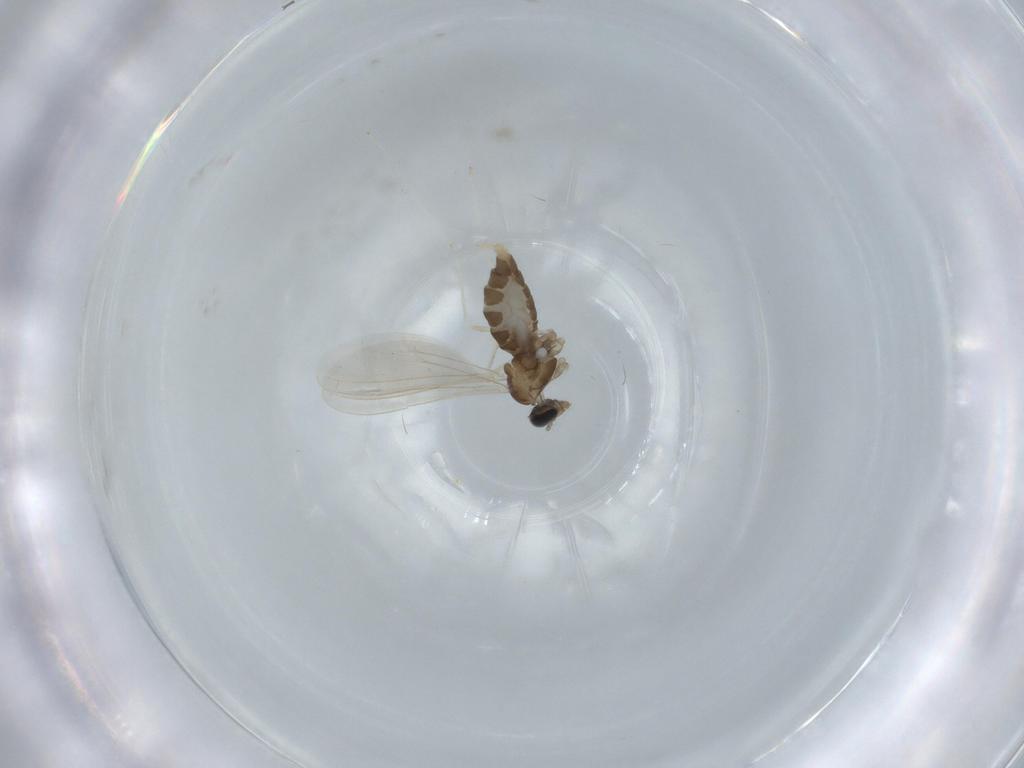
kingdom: Animalia
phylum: Arthropoda
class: Insecta
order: Diptera
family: Cecidomyiidae
